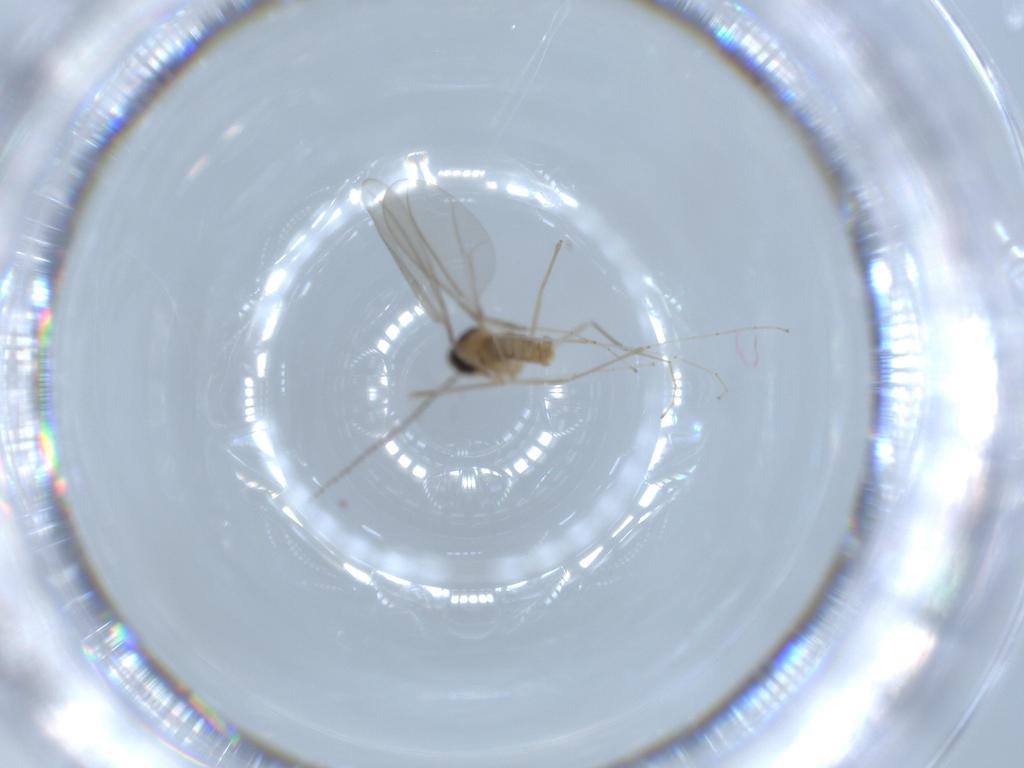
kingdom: Animalia
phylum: Arthropoda
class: Insecta
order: Diptera
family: Cecidomyiidae
